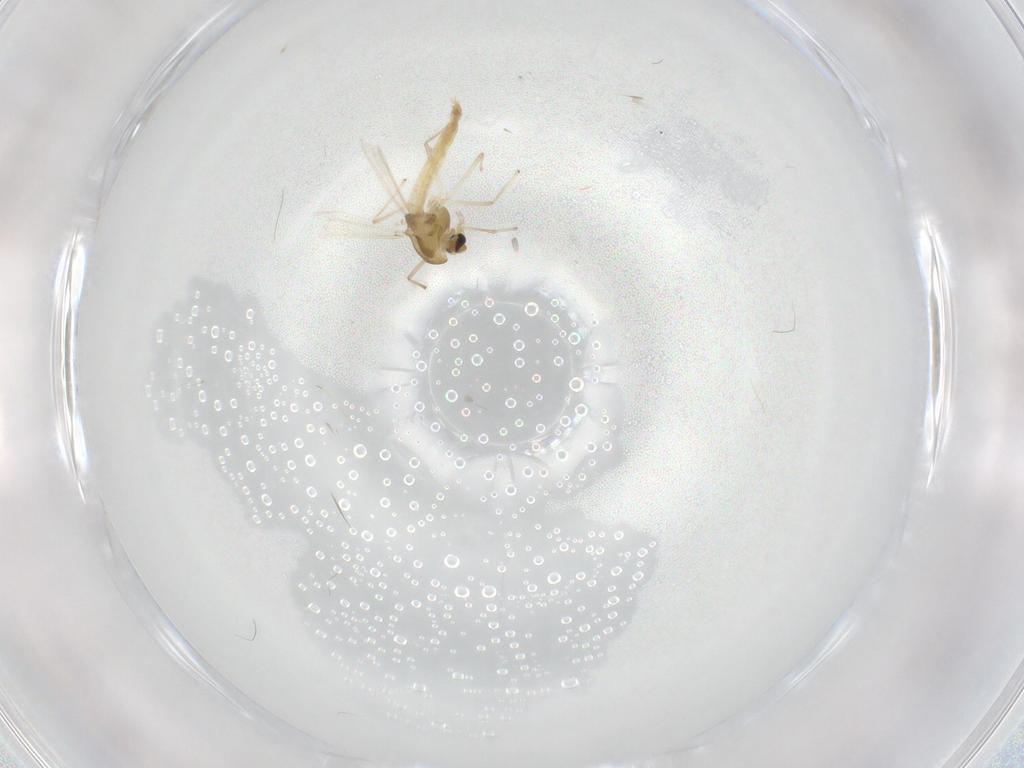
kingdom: Animalia
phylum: Arthropoda
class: Insecta
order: Diptera
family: Chironomidae
